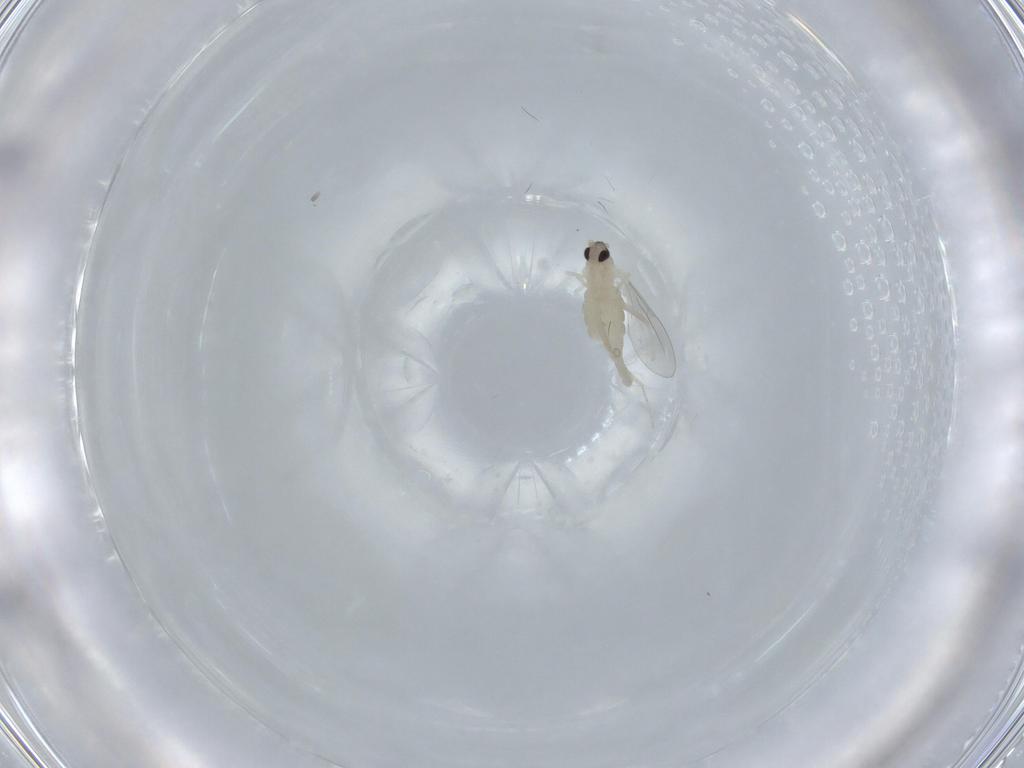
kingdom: Animalia
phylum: Arthropoda
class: Insecta
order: Diptera
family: Cecidomyiidae
